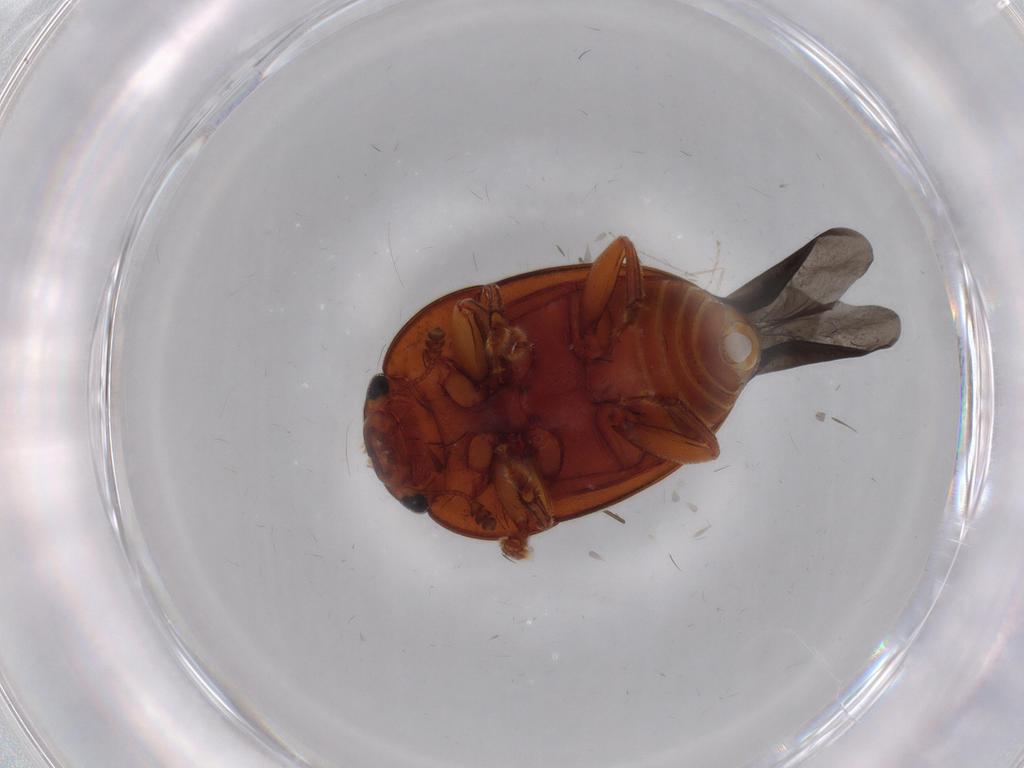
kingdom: Animalia
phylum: Arthropoda
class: Insecta
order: Coleoptera
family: Nitidulidae
